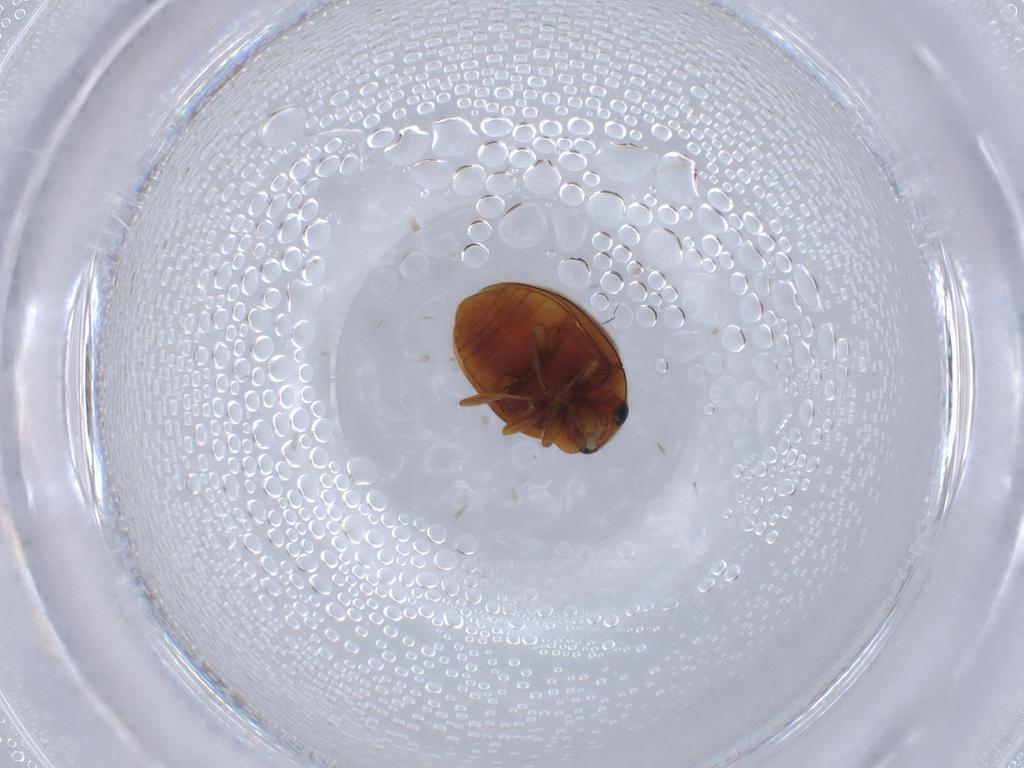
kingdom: Animalia
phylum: Arthropoda
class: Insecta
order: Coleoptera
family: Coccinellidae
